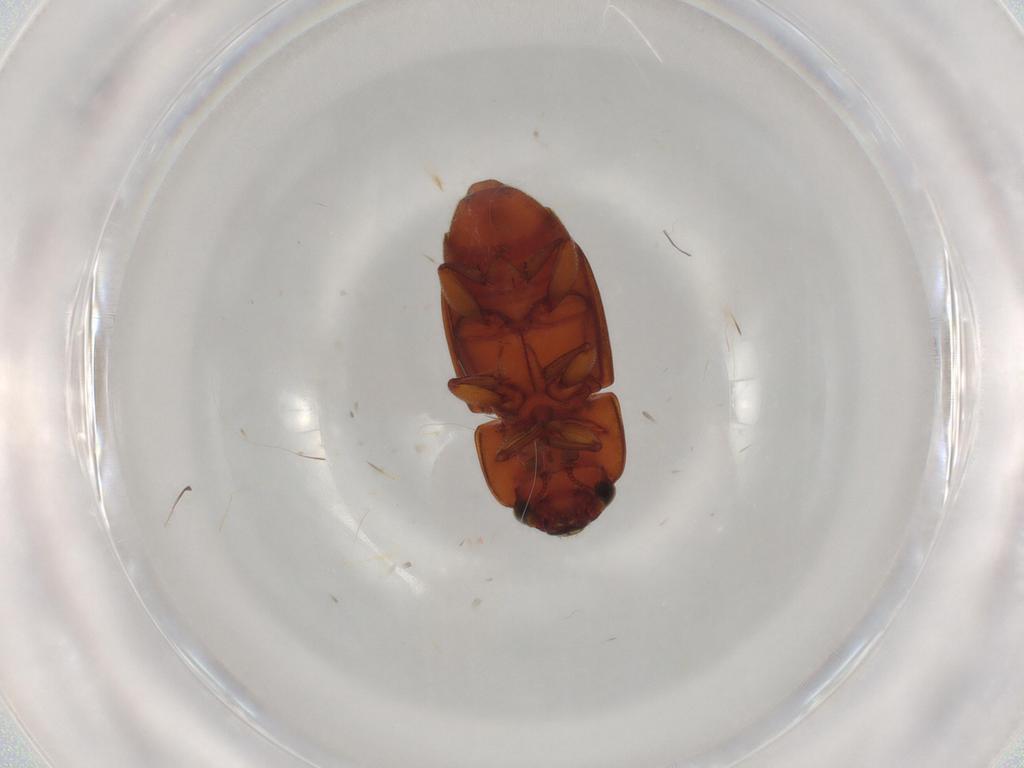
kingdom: Animalia
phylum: Arthropoda
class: Insecta
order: Coleoptera
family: Nitidulidae
